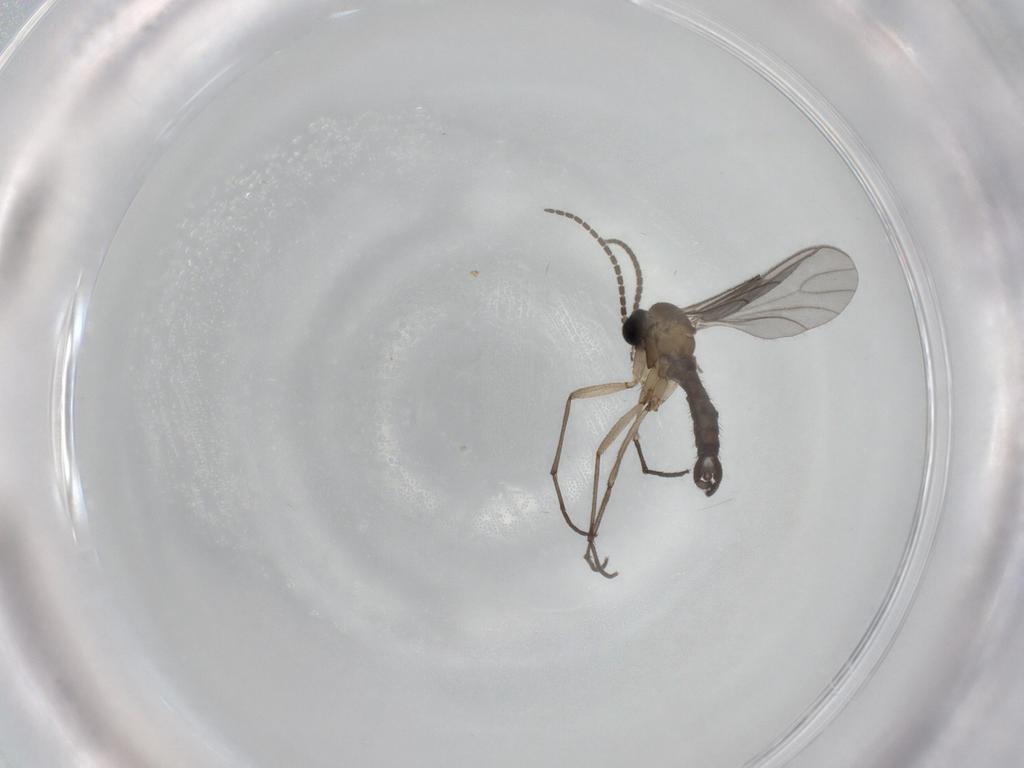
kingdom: Animalia
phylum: Arthropoda
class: Insecta
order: Diptera
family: Sciaridae
